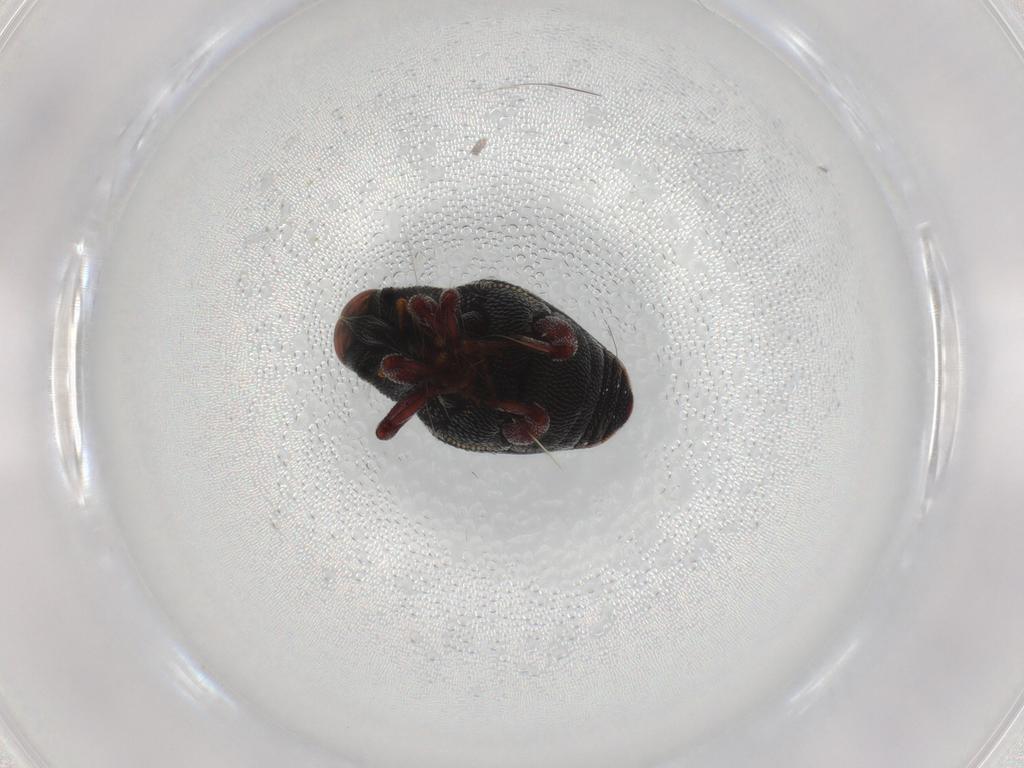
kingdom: Animalia
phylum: Arthropoda
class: Insecta
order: Coleoptera
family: Curculionidae
